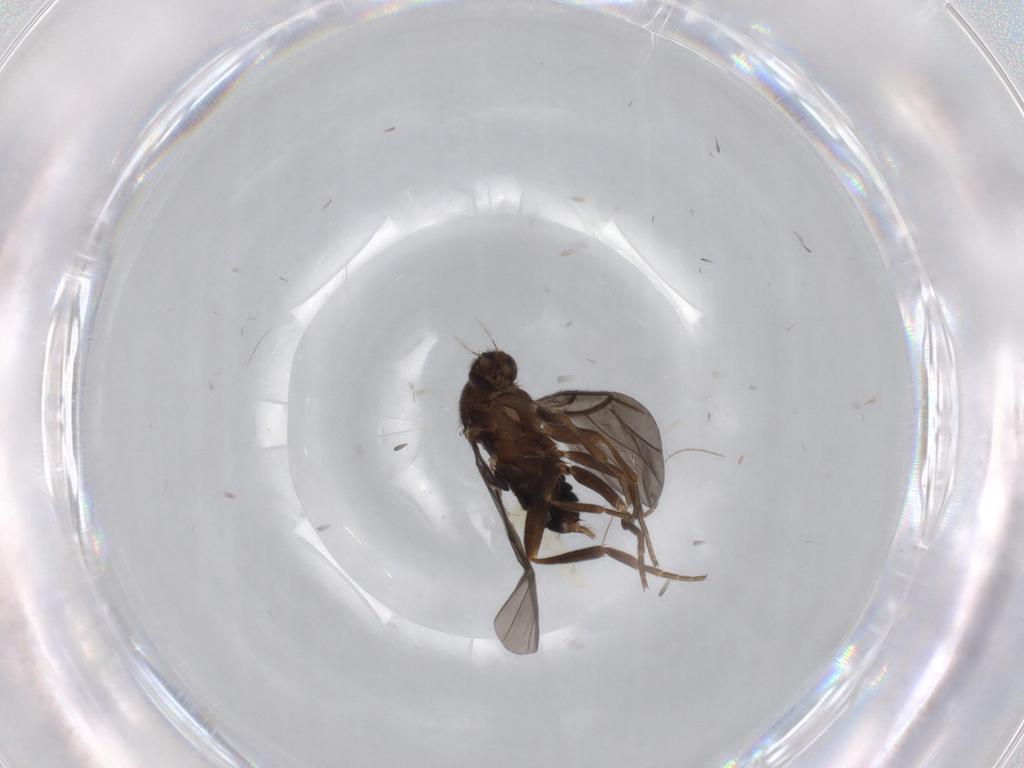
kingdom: Animalia
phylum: Arthropoda
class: Insecta
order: Diptera
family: Phoridae
